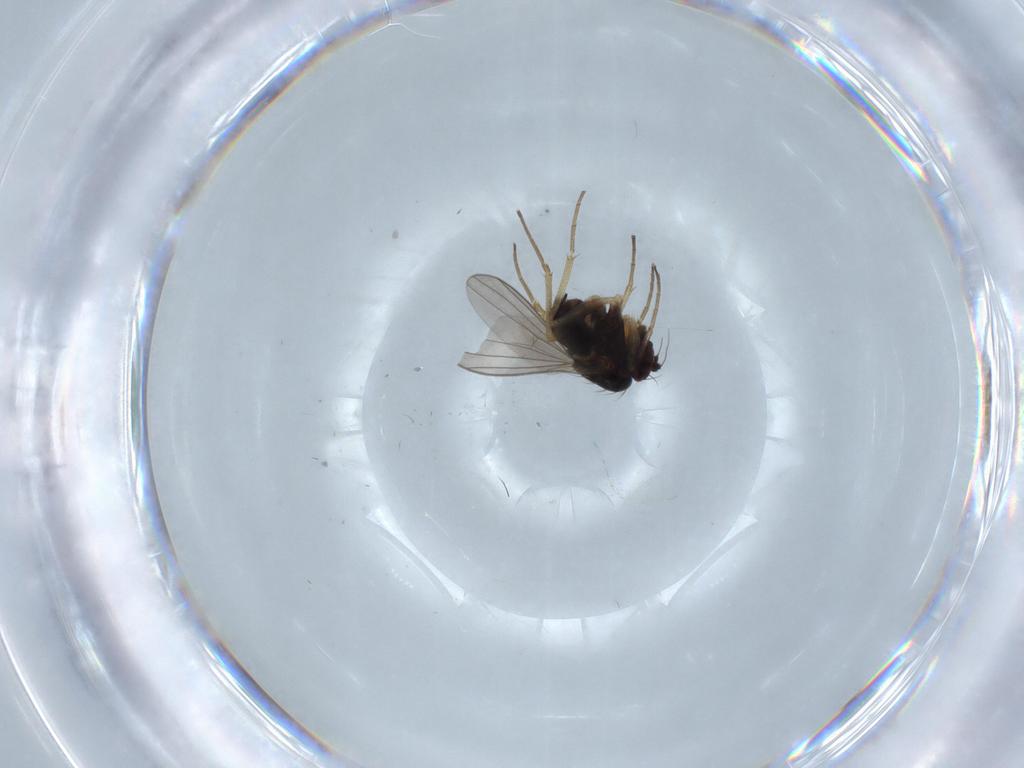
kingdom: Animalia
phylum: Arthropoda
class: Insecta
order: Diptera
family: Dolichopodidae
